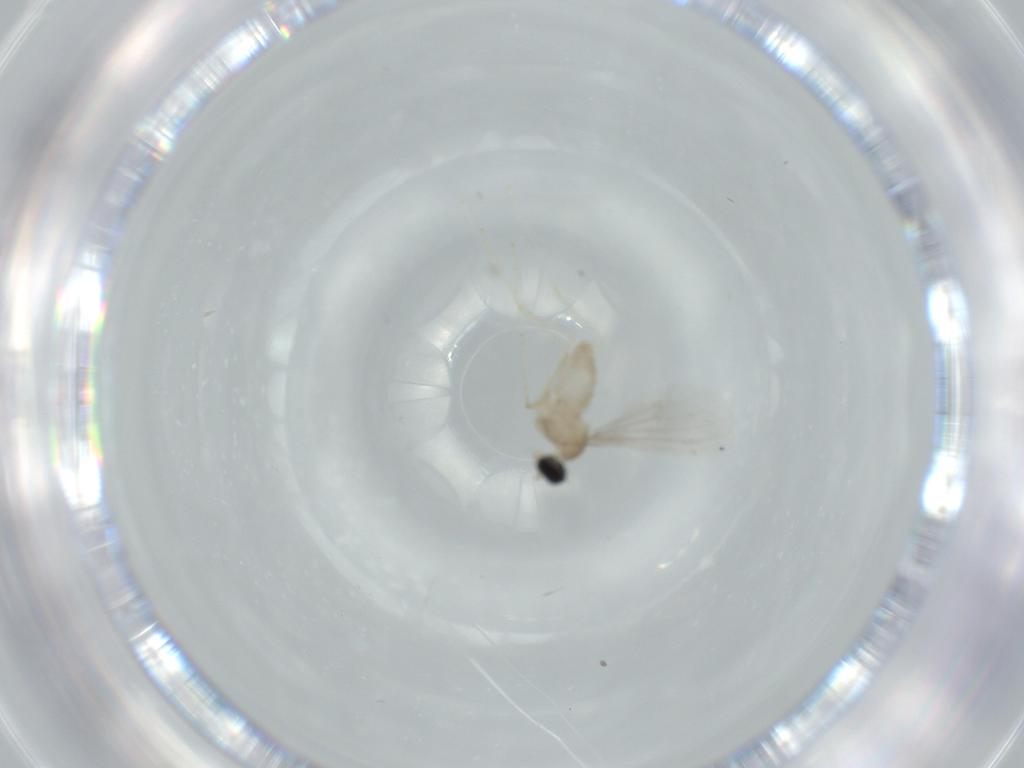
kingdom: Animalia
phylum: Arthropoda
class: Insecta
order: Diptera
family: Cecidomyiidae
